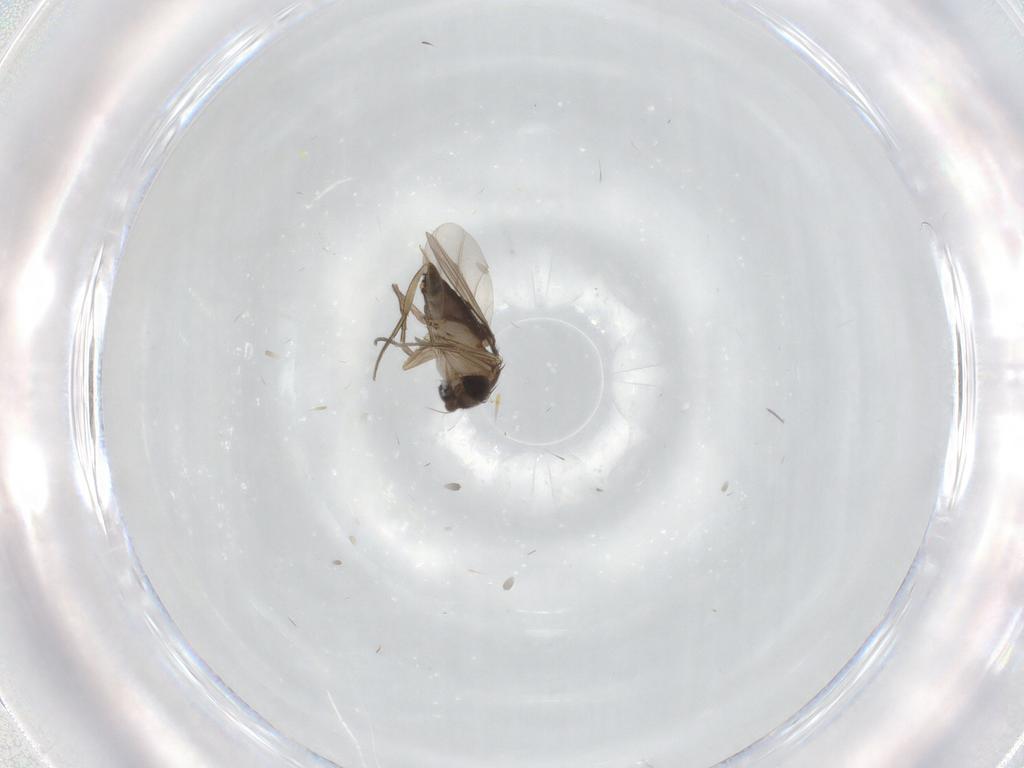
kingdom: Animalia
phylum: Arthropoda
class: Insecta
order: Diptera
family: Phoridae
